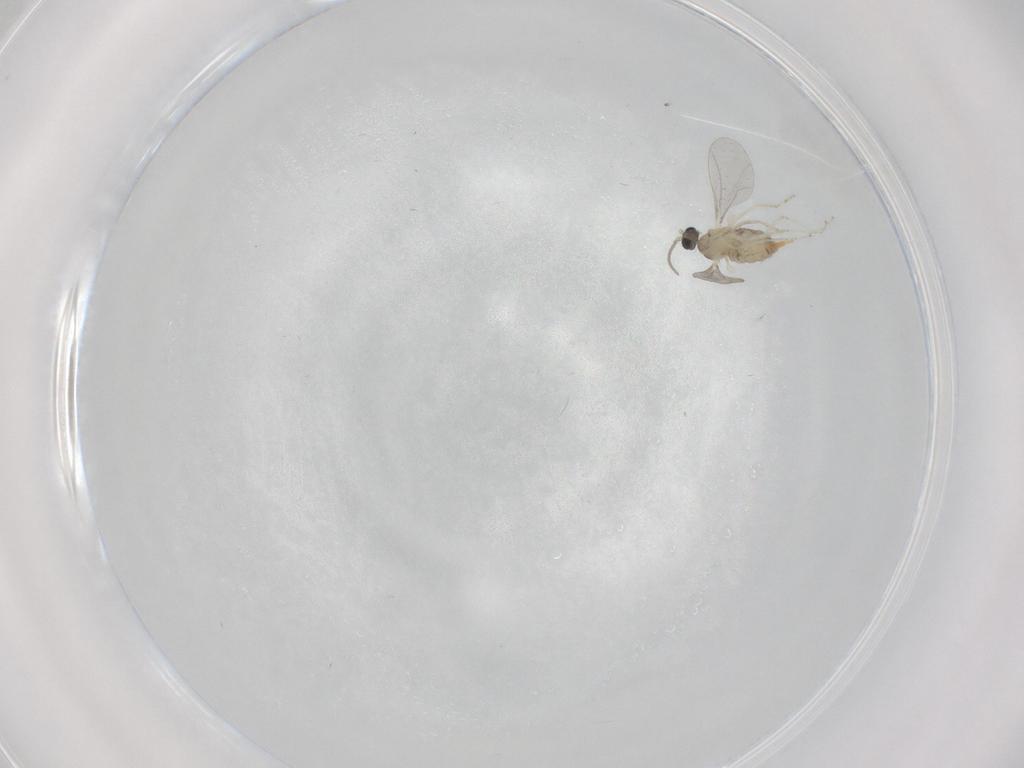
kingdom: Animalia
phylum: Arthropoda
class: Insecta
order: Diptera
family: Cecidomyiidae
